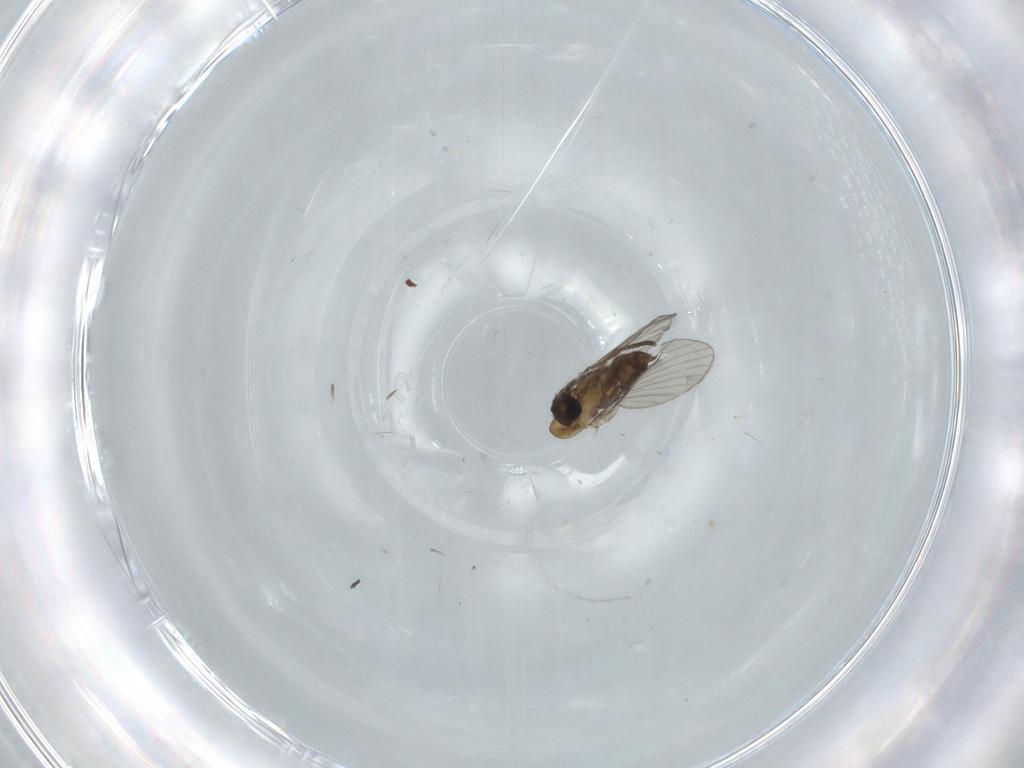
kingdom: Animalia
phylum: Arthropoda
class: Insecta
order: Diptera
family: Ceratopogonidae
